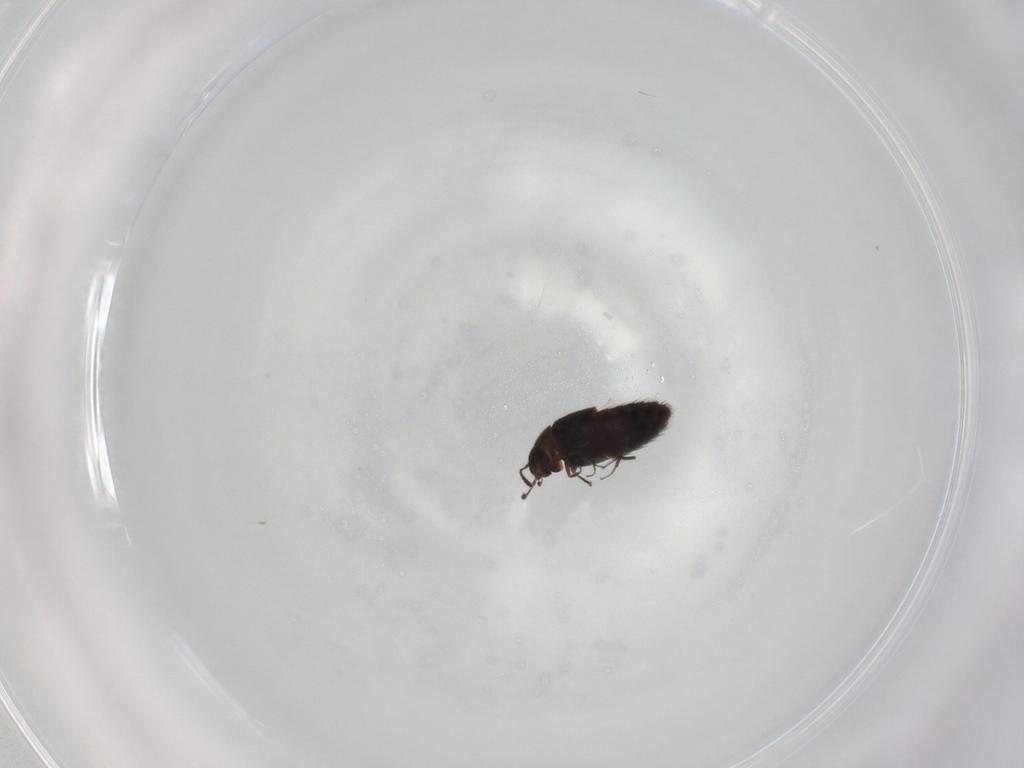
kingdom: Animalia
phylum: Arthropoda
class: Insecta
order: Coleoptera
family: Staphylinidae
